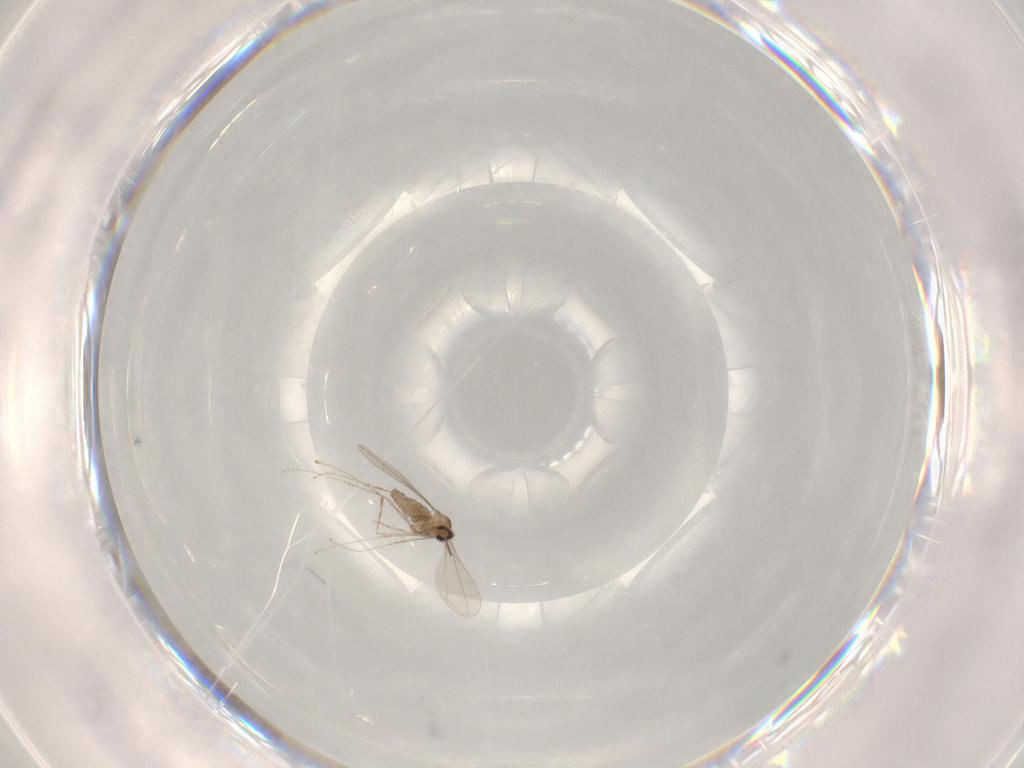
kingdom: Animalia
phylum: Arthropoda
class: Insecta
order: Diptera
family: Cecidomyiidae
